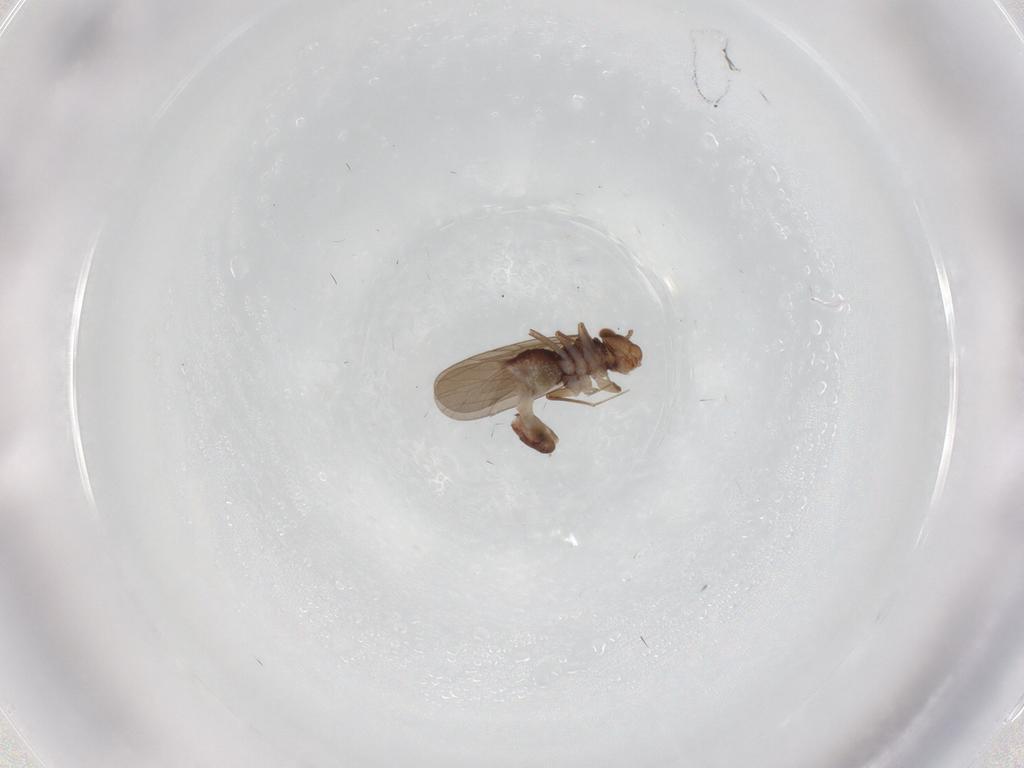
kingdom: Animalia
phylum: Arthropoda
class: Insecta
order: Psocodea
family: Lepidopsocidae
